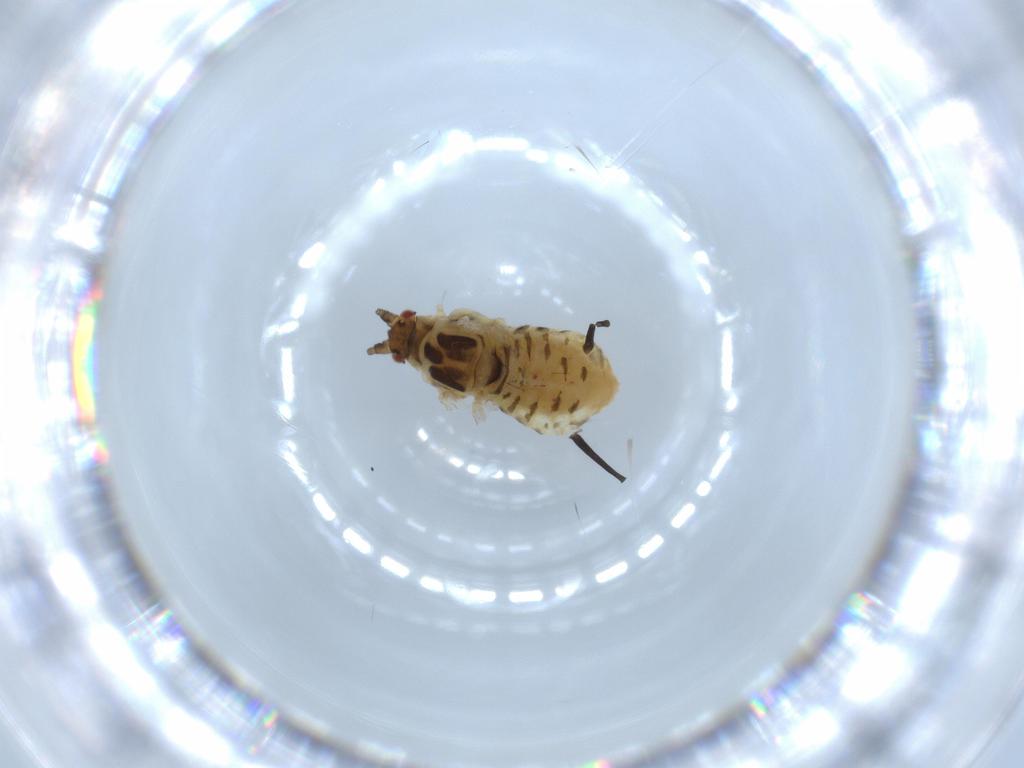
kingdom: Animalia
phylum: Arthropoda
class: Insecta
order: Hemiptera
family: Aphididae
